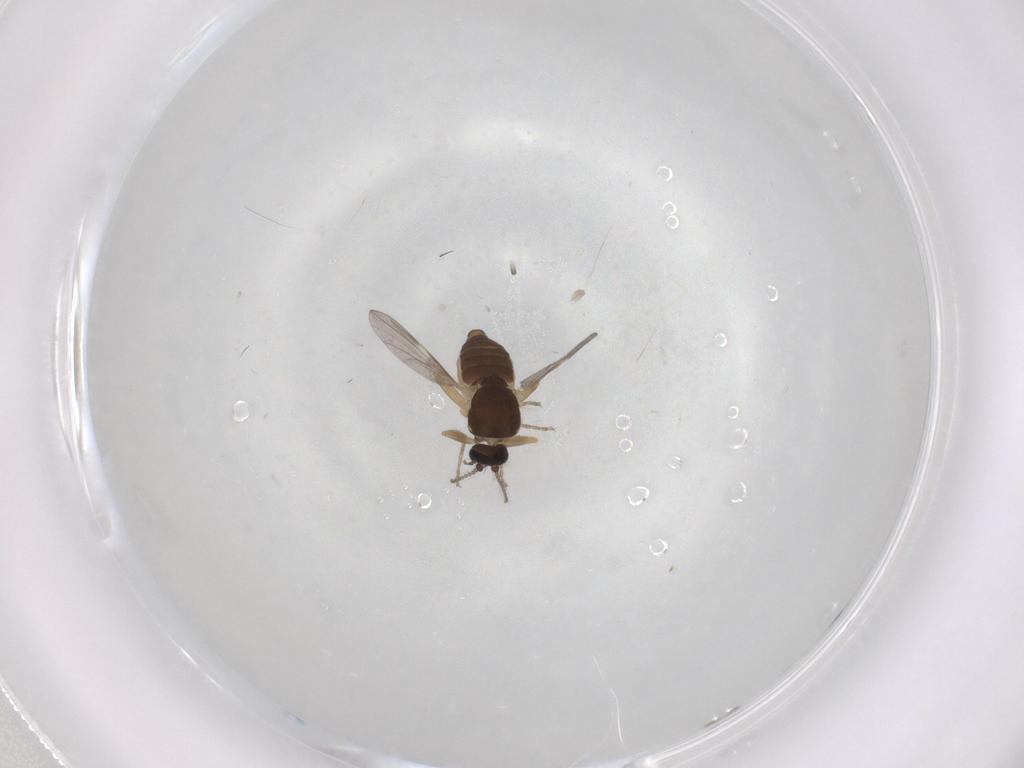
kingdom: Animalia
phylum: Arthropoda
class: Insecta
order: Diptera
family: Ceratopogonidae
